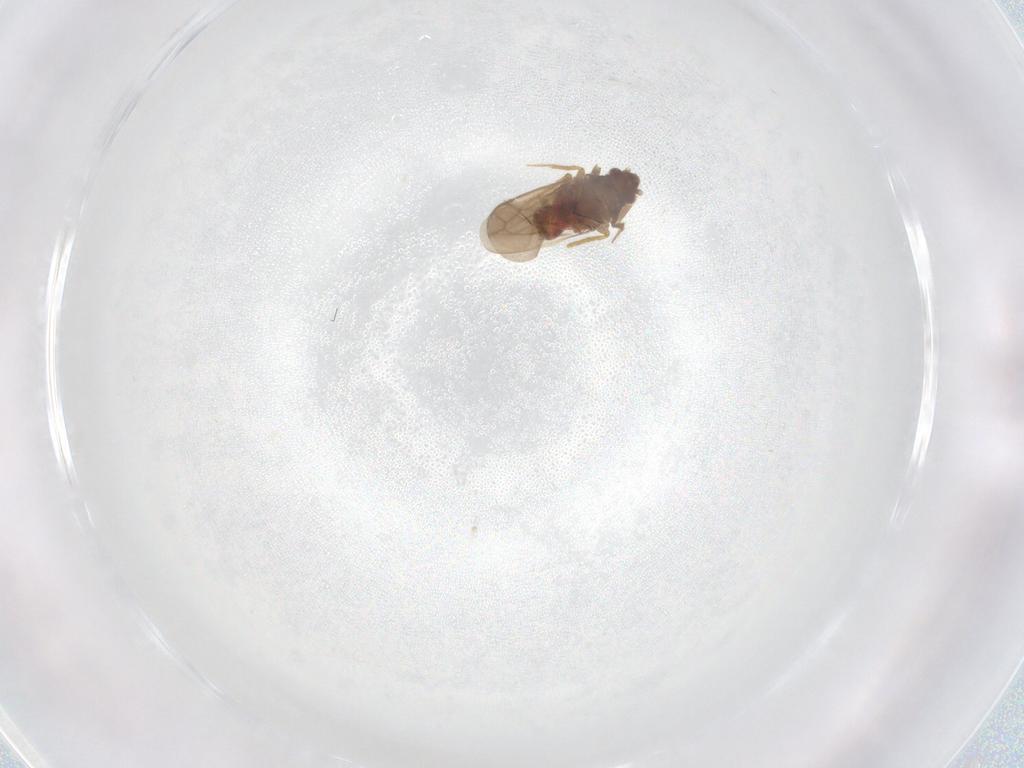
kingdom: Animalia
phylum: Arthropoda
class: Insecta
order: Hemiptera
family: Ceratocombidae
